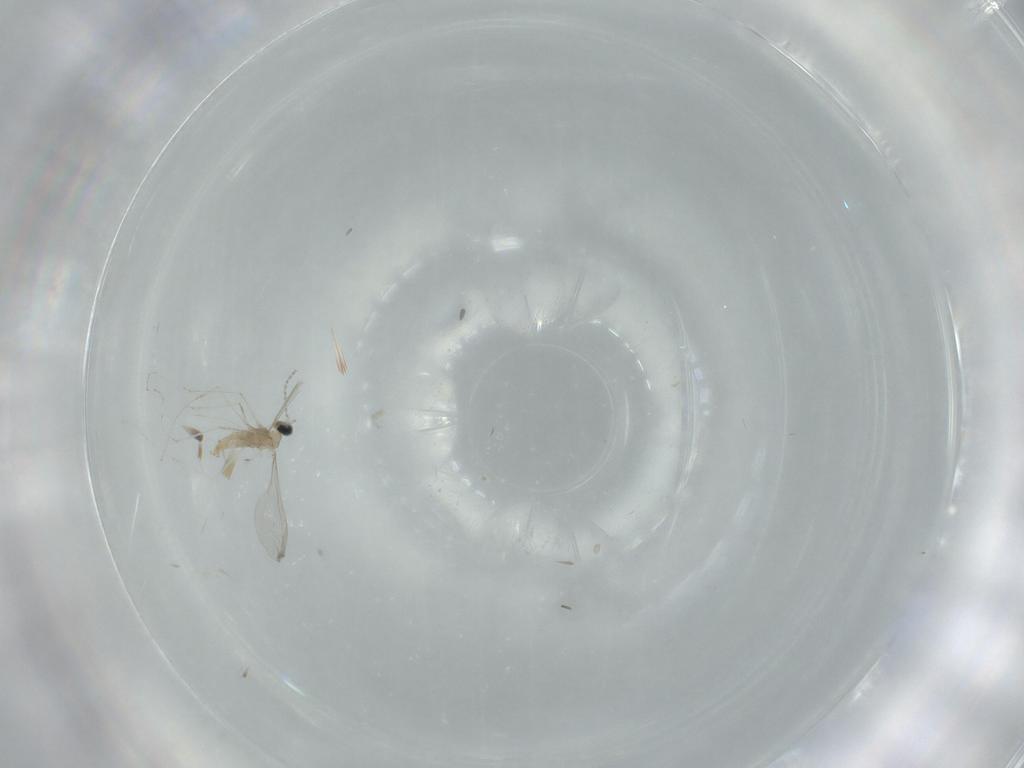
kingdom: Animalia
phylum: Arthropoda
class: Insecta
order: Diptera
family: Cecidomyiidae
